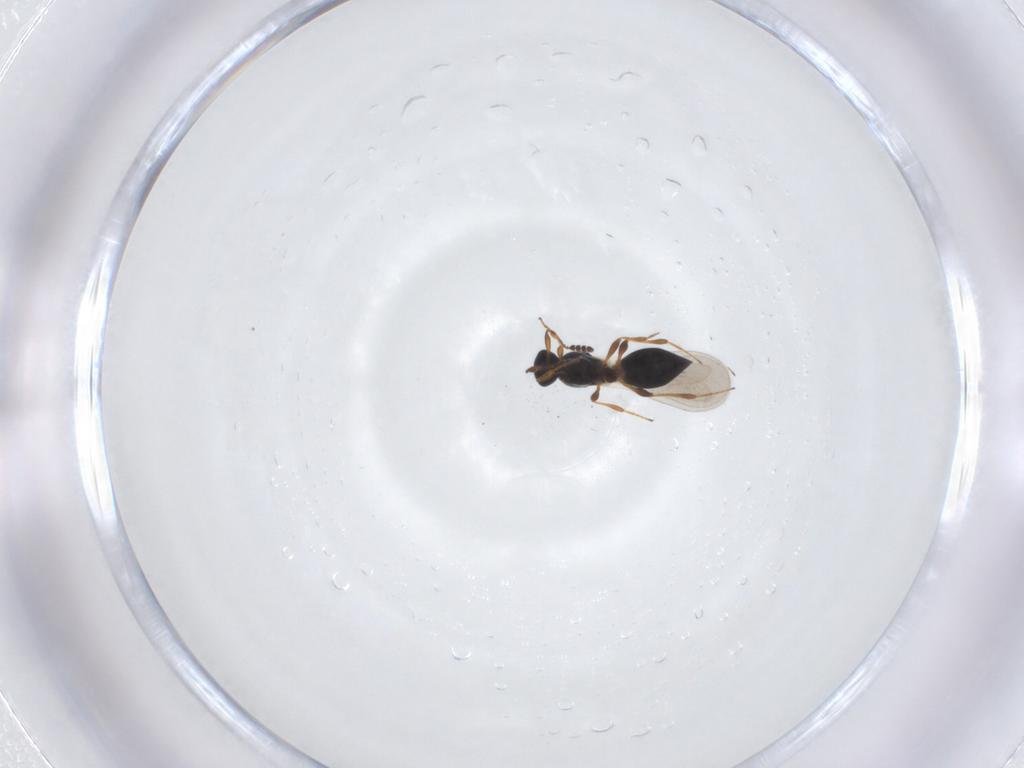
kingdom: Animalia
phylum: Arthropoda
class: Insecta
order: Hymenoptera
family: Platygastridae
